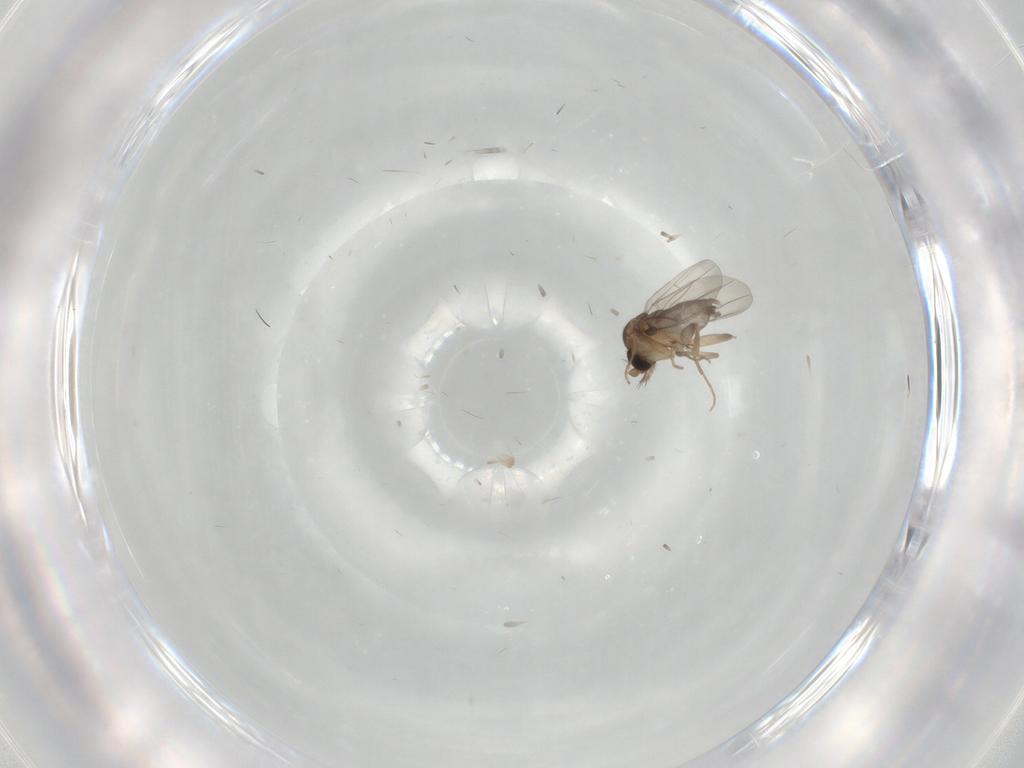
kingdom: Animalia
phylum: Arthropoda
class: Insecta
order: Diptera
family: Phoridae
